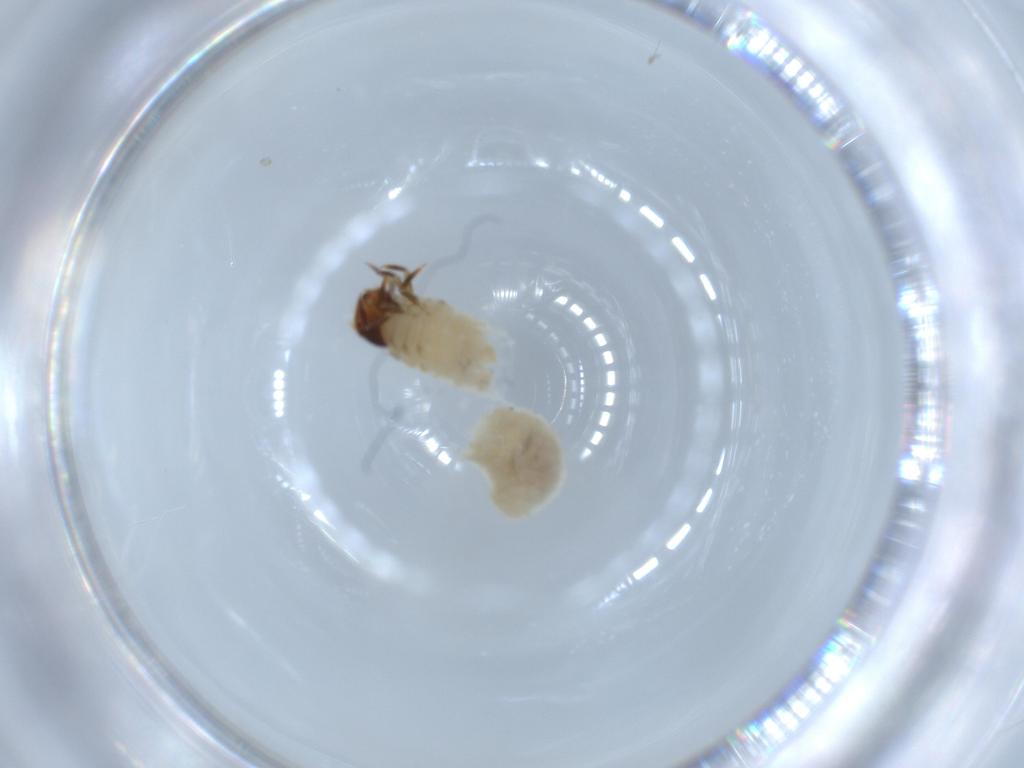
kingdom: Animalia
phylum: Arthropoda
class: Insecta
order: Coleoptera
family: Chrysomelidae
